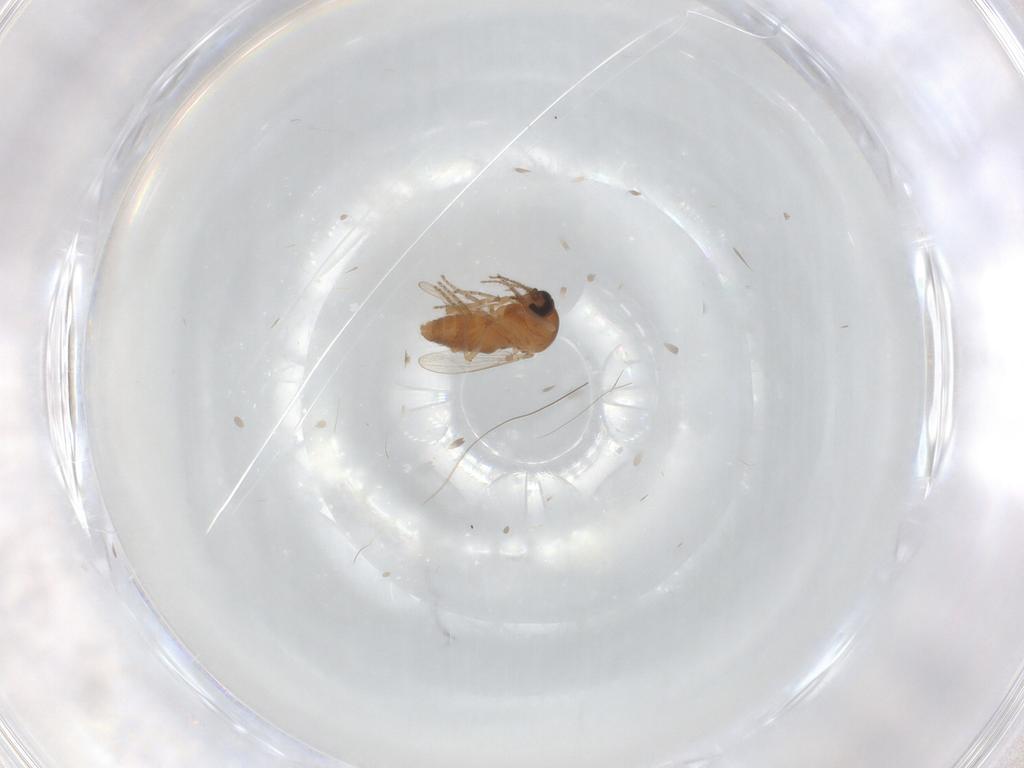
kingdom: Animalia
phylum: Arthropoda
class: Insecta
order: Diptera
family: Ceratopogonidae
